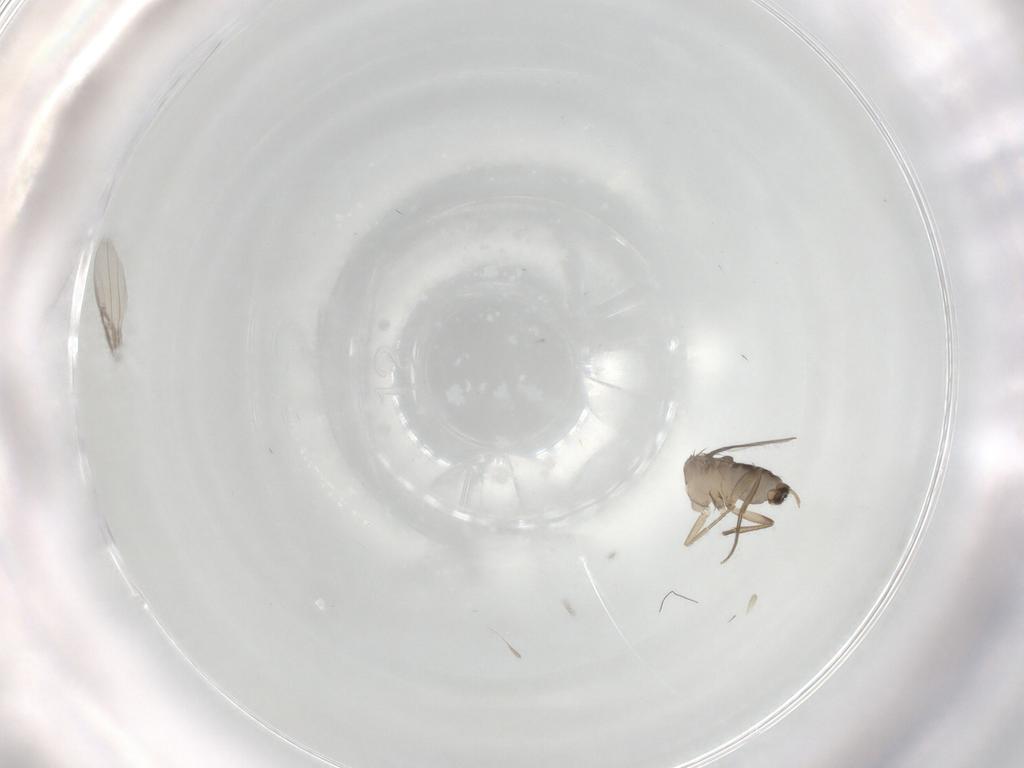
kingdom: Animalia
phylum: Arthropoda
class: Insecta
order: Diptera
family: Phoridae
